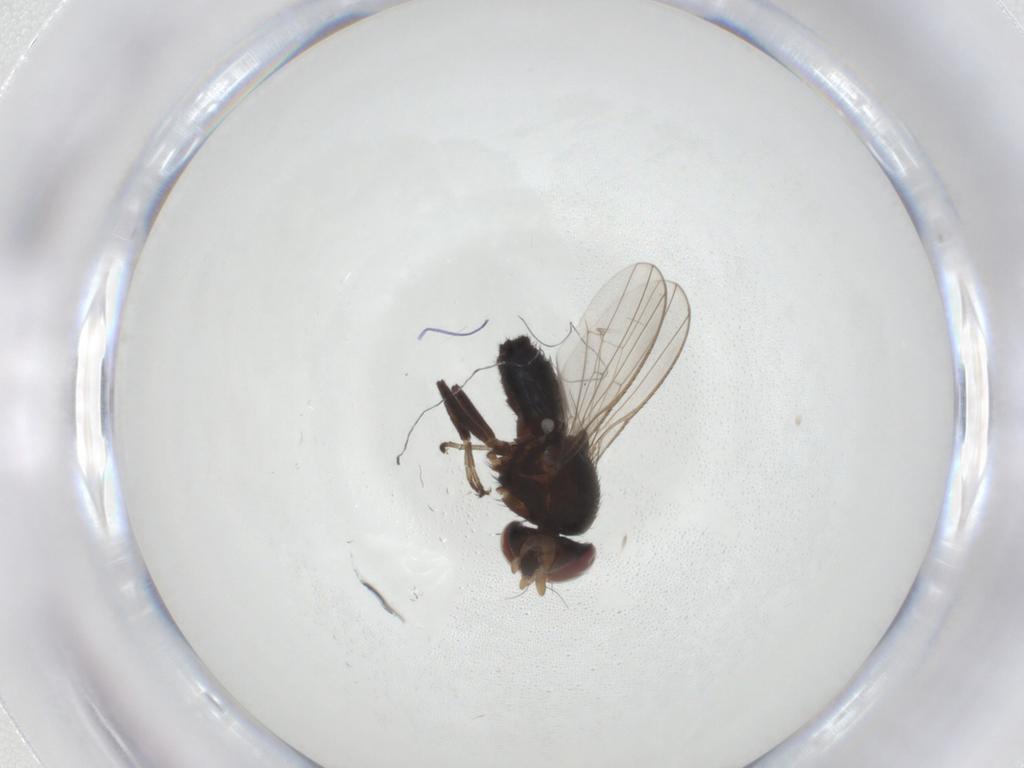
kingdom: Animalia
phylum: Arthropoda
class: Insecta
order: Diptera
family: Heleomyzidae
